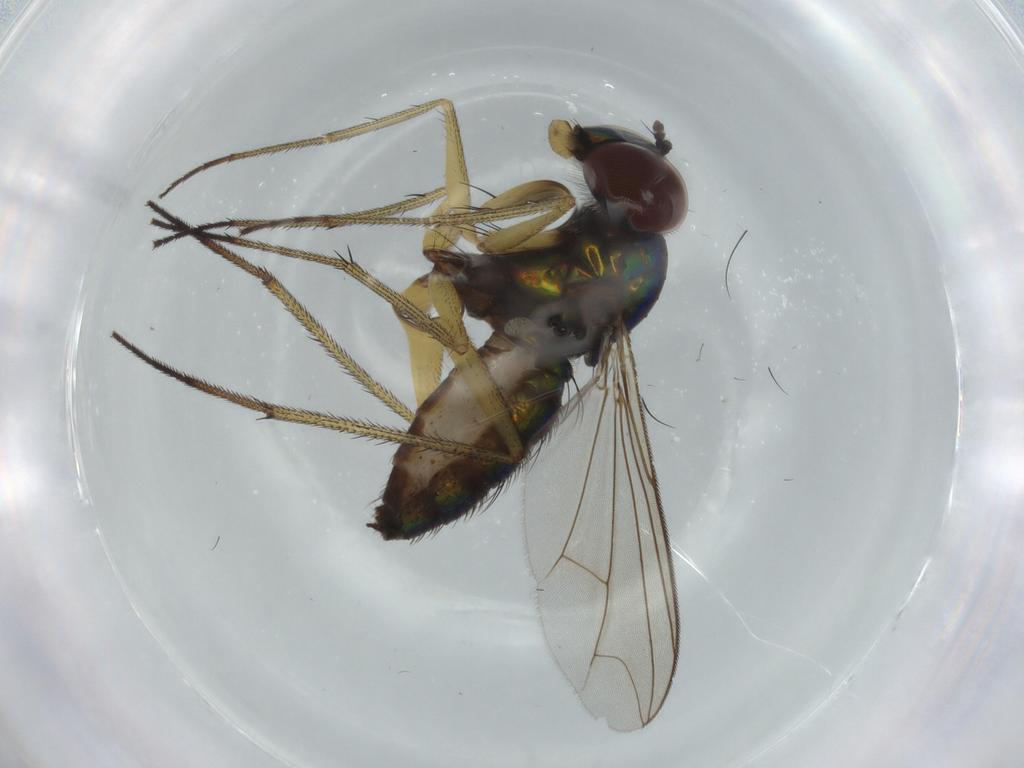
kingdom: Animalia
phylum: Arthropoda
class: Insecta
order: Diptera
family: Dolichopodidae
